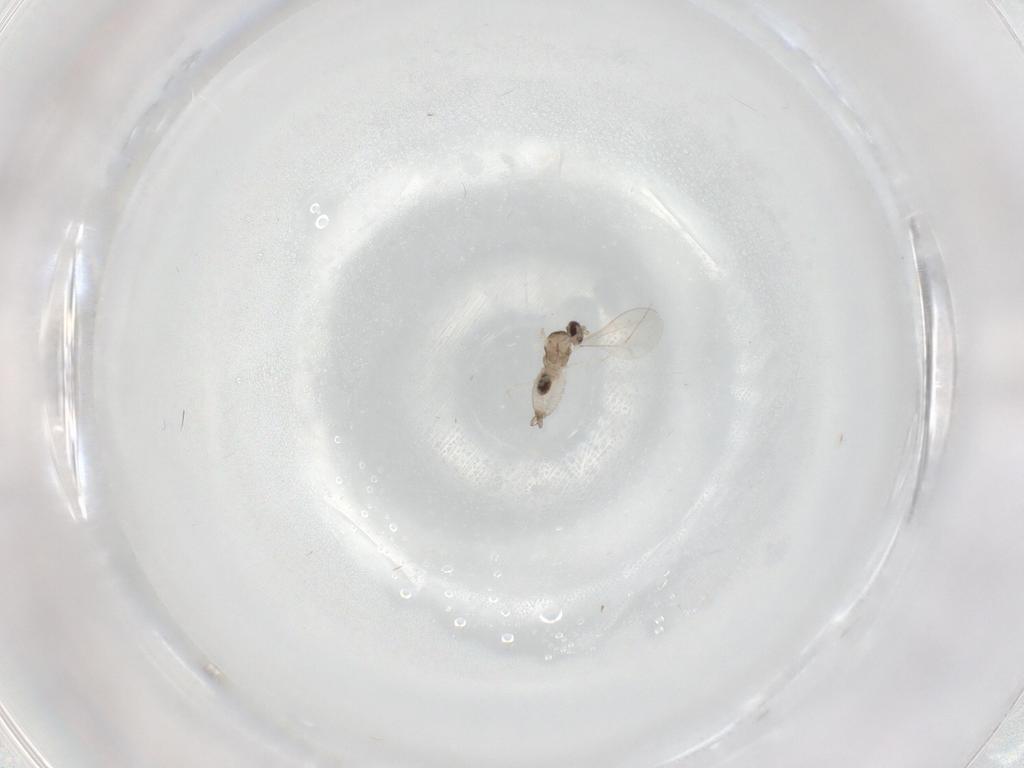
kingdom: Animalia
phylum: Arthropoda
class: Insecta
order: Diptera
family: Cecidomyiidae
